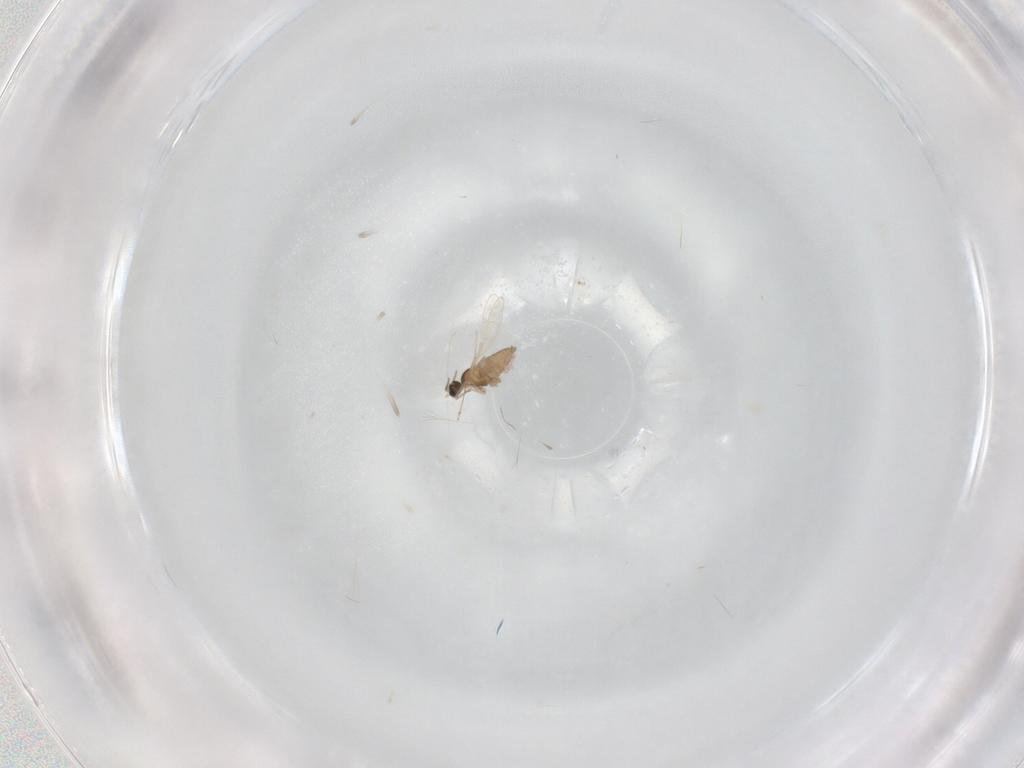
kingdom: Animalia
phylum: Arthropoda
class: Insecta
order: Diptera
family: Cecidomyiidae
